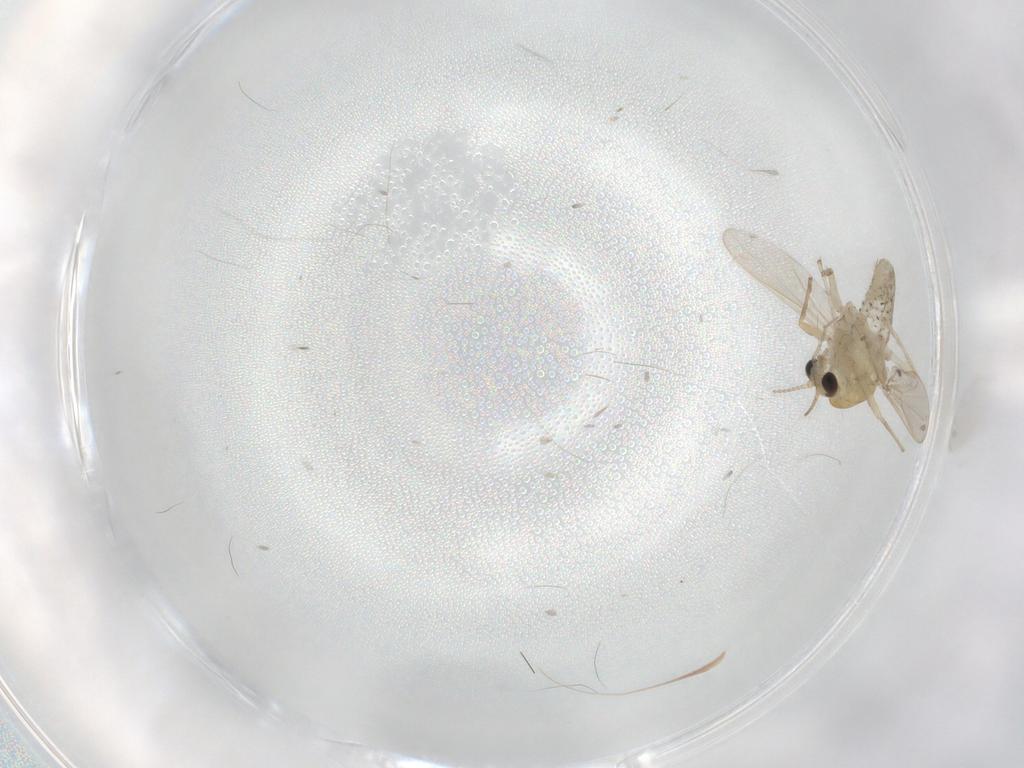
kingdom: Animalia
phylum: Arthropoda
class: Insecta
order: Diptera
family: Chironomidae
